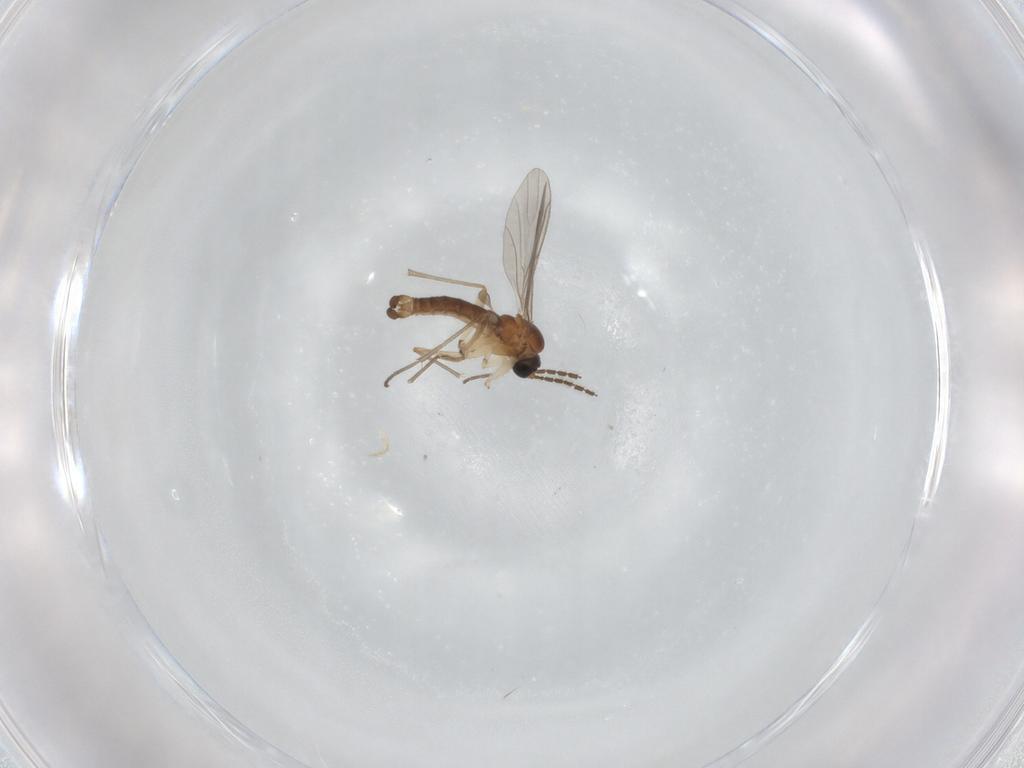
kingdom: Animalia
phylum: Arthropoda
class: Insecta
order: Diptera
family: Sciaridae
